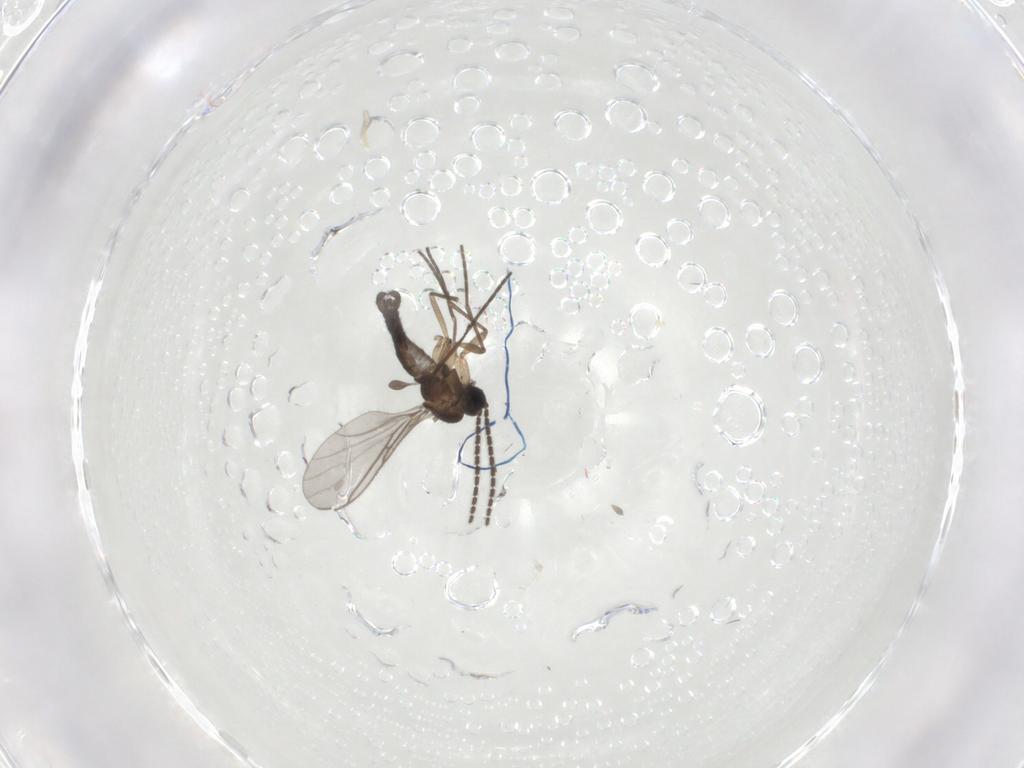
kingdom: Animalia
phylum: Arthropoda
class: Insecta
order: Diptera
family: Sciaridae
